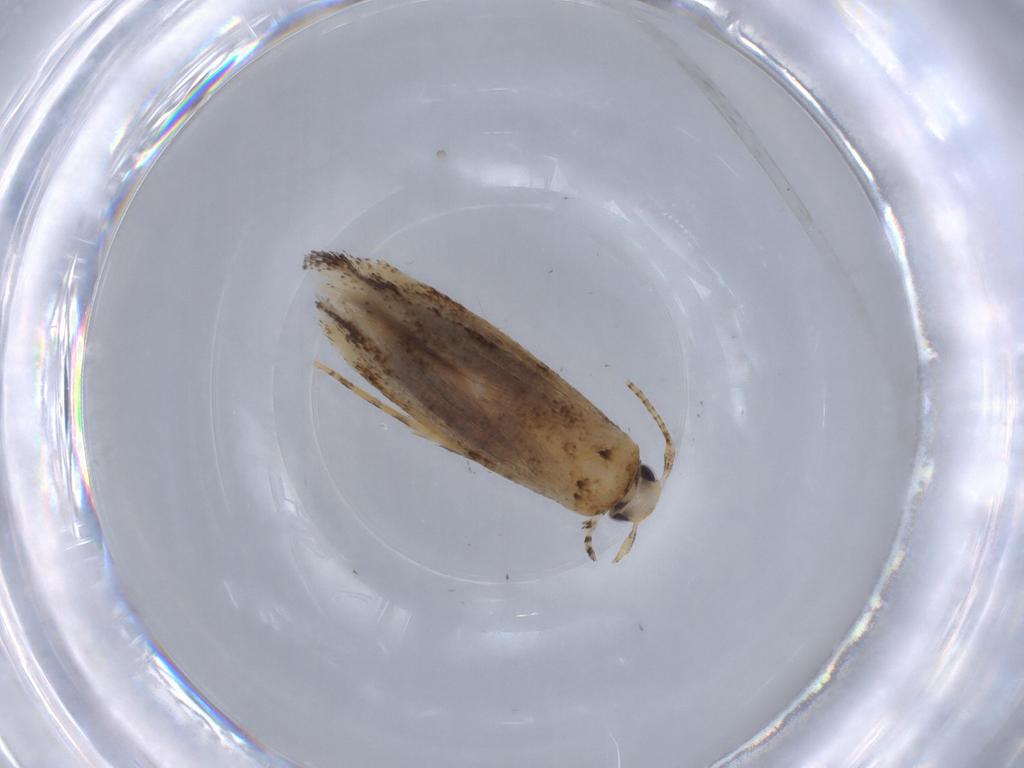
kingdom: Animalia
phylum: Arthropoda
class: Insecta
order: Lepidoptera
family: Gelechiidae
